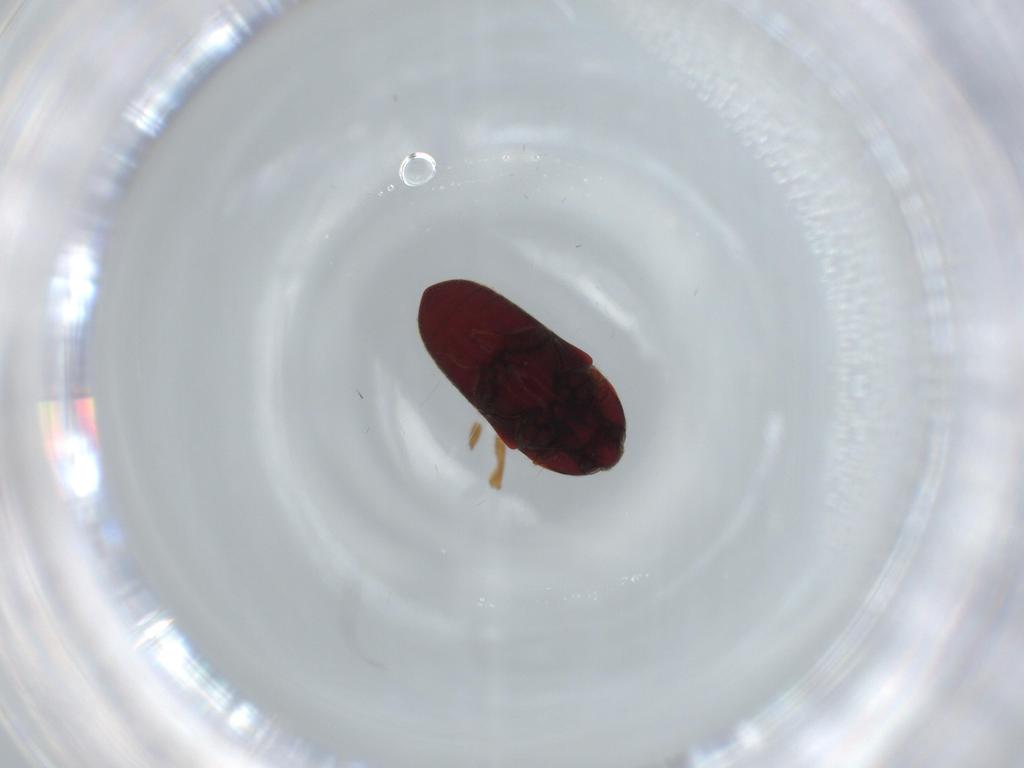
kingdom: Animalia
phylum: Arthropoda
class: Insecta
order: Coleoptera
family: Throscidae
